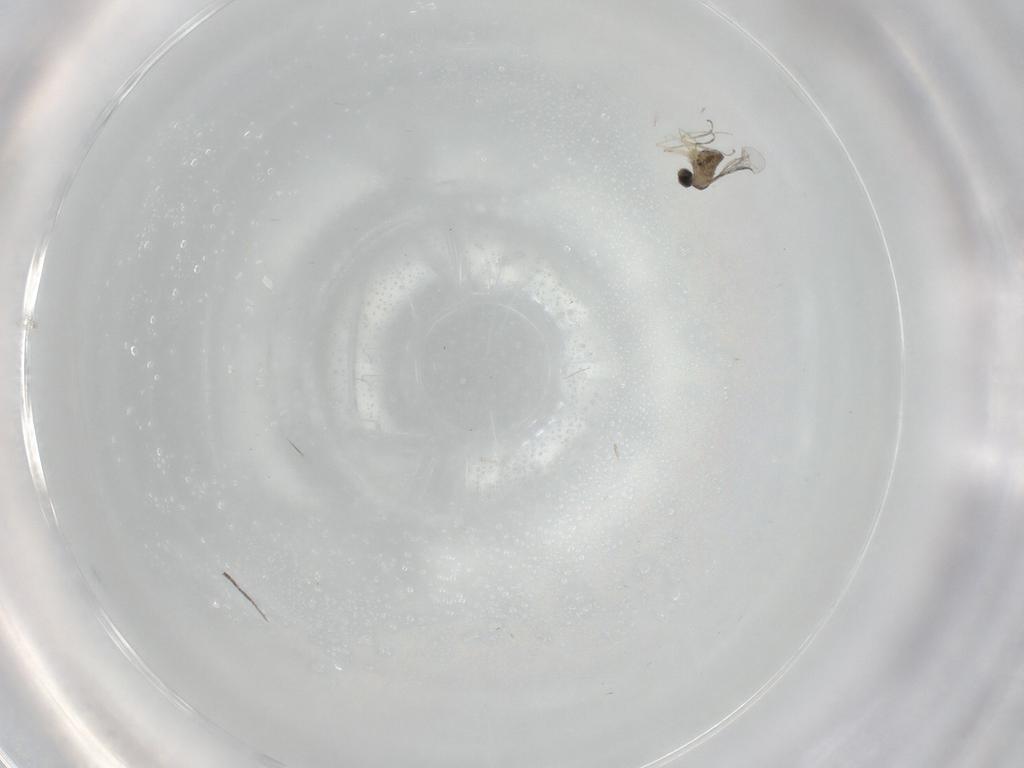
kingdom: Animalia
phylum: Arthropoda
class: Insecta
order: Diptera
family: Cecidomyiidae
